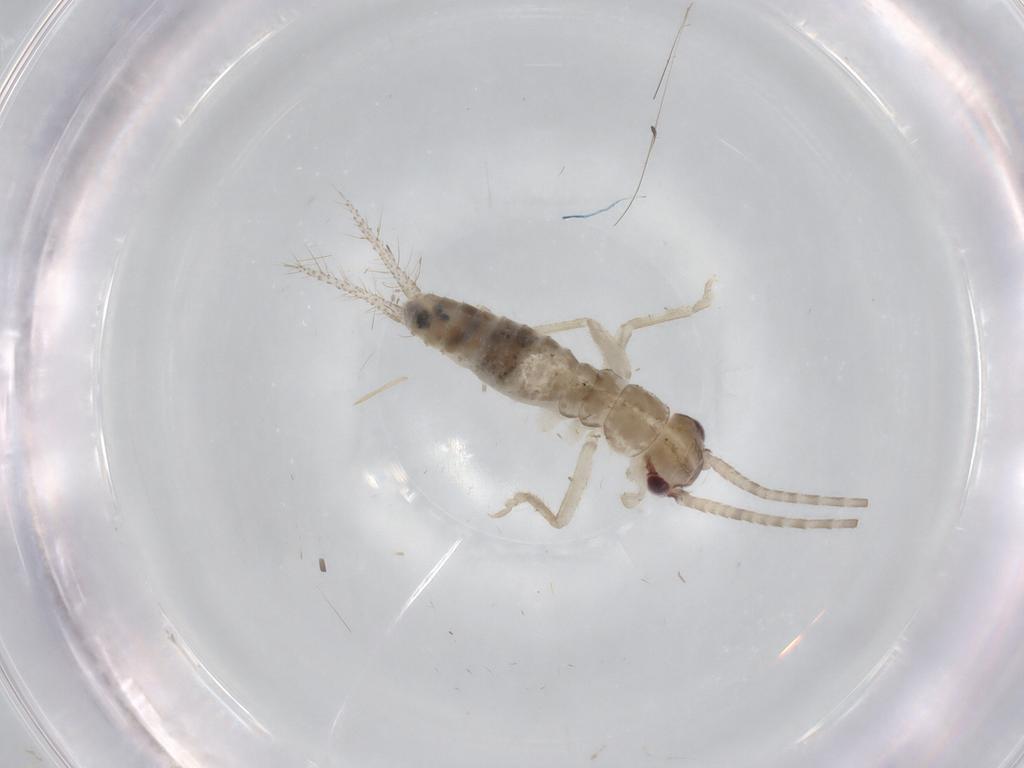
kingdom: Animalia
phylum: Arthropoda
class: Insecta
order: Orthoptera
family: Gryllidae
